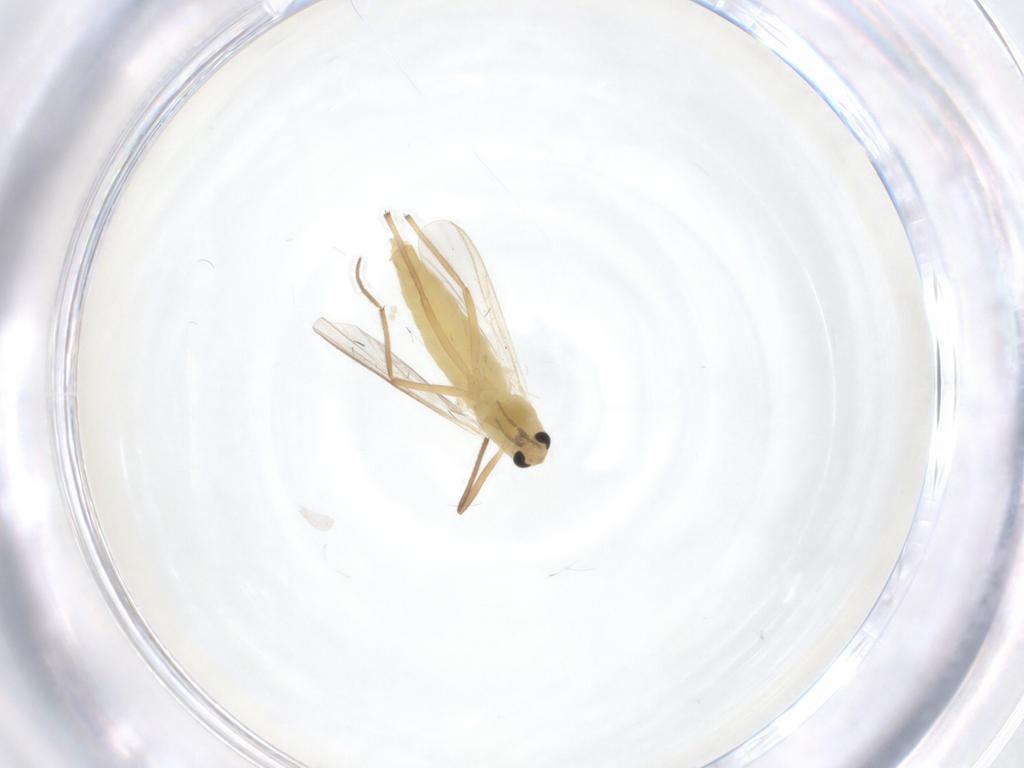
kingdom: Animalia
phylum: Arthropoda
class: Insecta
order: Diptera
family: Chironomidae
